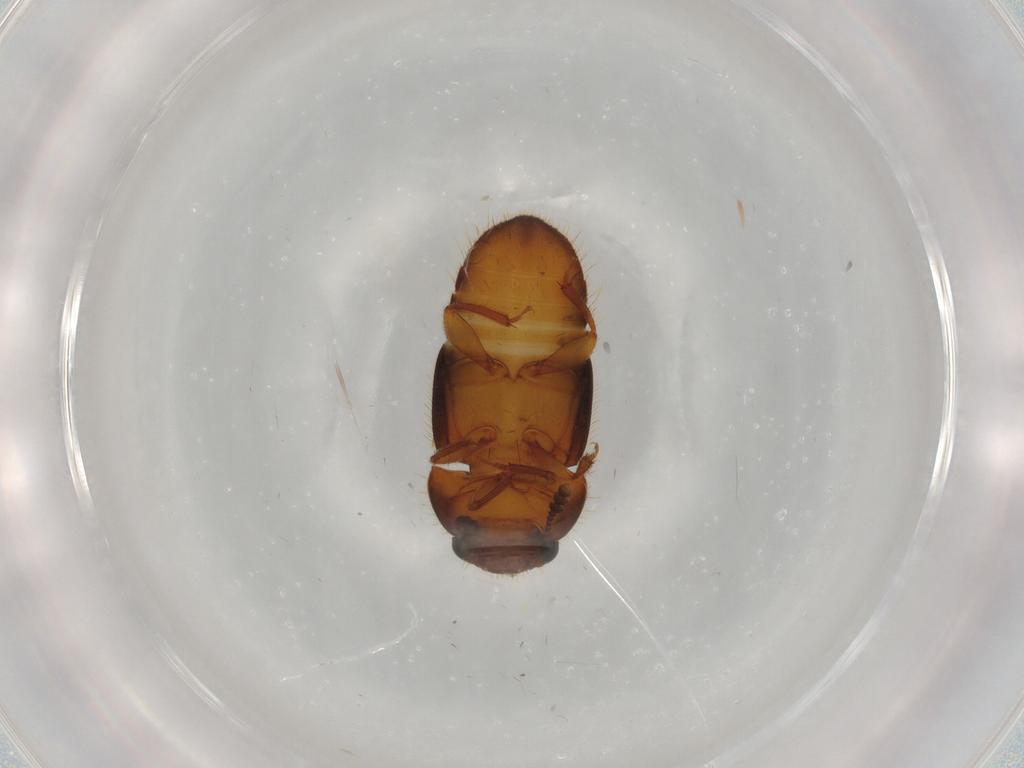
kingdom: Animalia
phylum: Arthropoda
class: Insecta
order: Coleoptera
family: Nitidulidae
